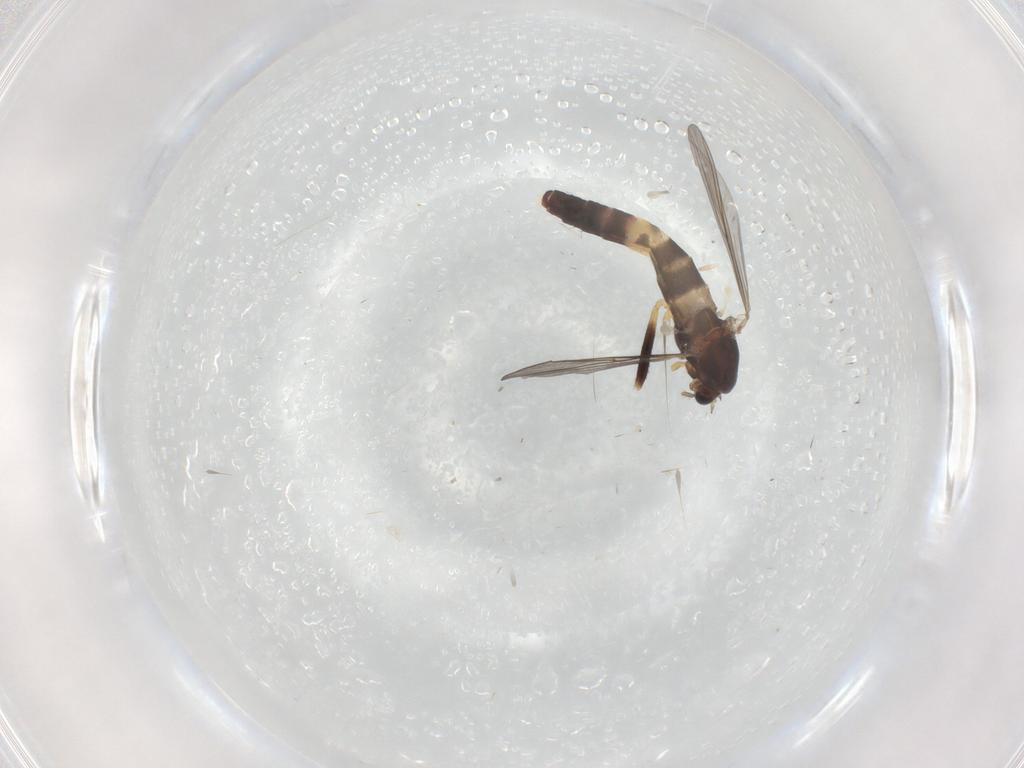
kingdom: Animalia
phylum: Arthropoda
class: Insecta
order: Diptera
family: Chironomidae
